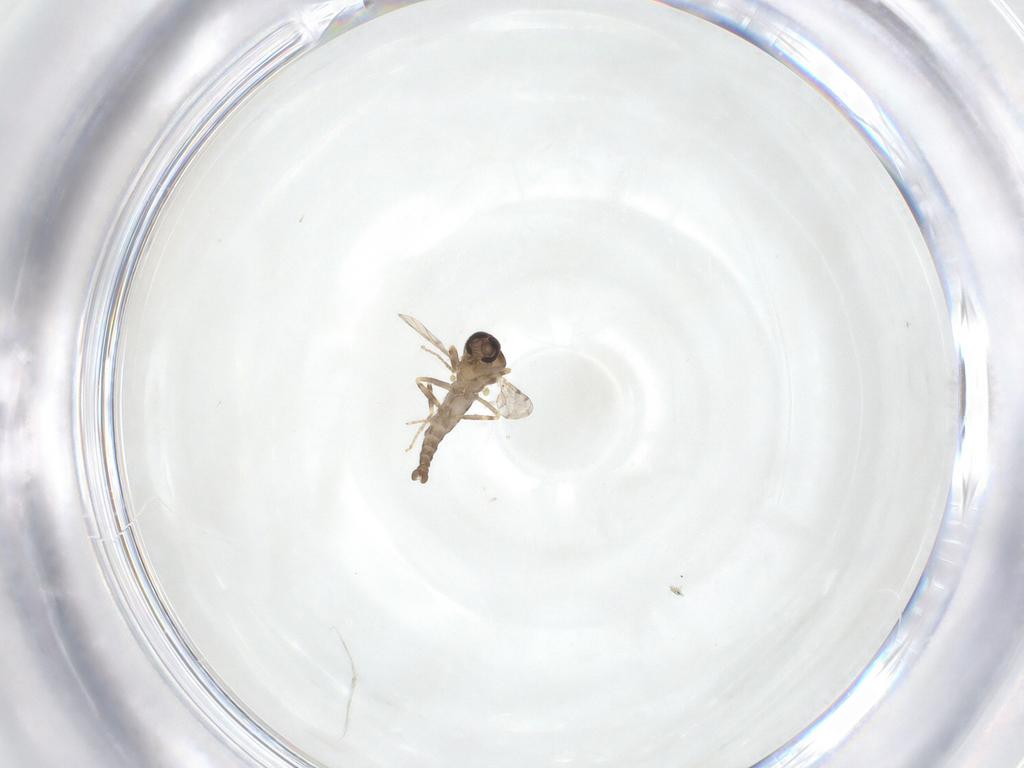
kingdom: Animalia
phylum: Arthropoda
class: Insecta
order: Diptera
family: Ceratopogonidae
